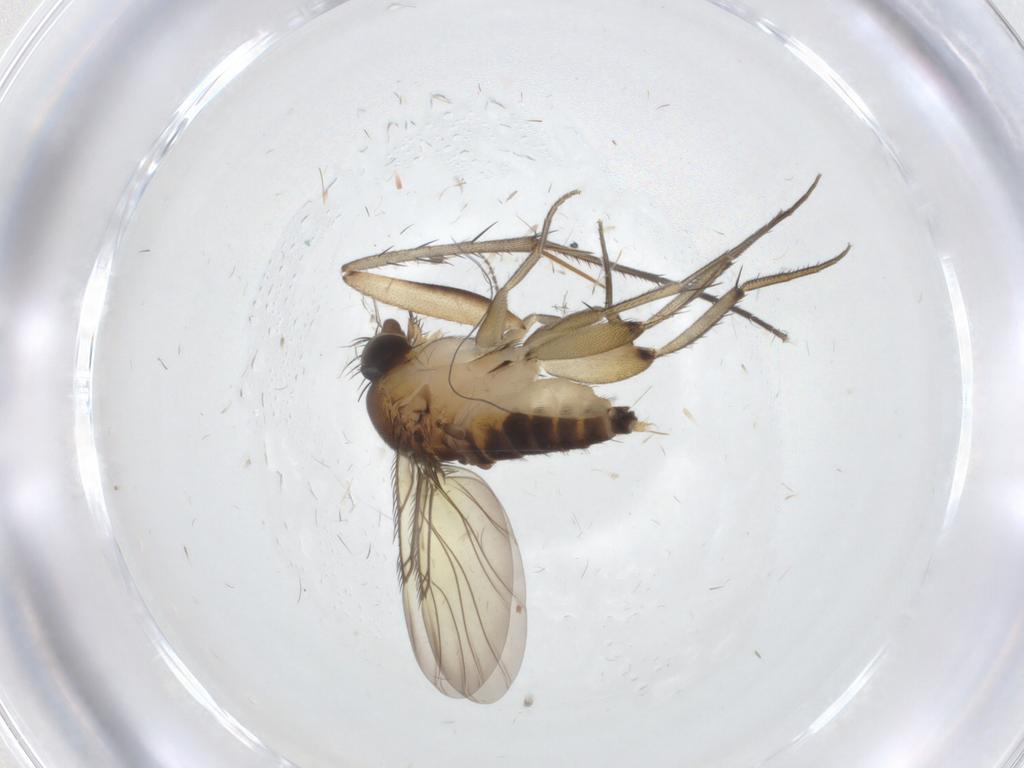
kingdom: Animalia
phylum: Arthropoda
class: Insecta
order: Diptera
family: Phoridae
